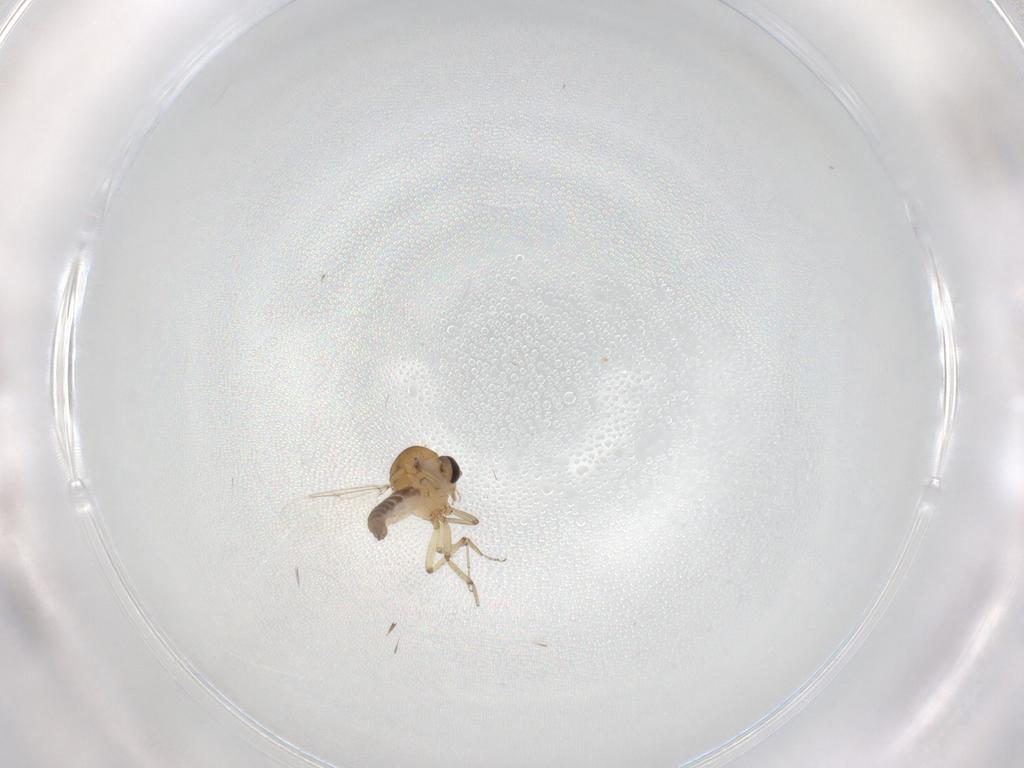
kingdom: Animalia
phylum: Arthropoda
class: Insecta
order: Diptera
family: Ceratopogonidae
